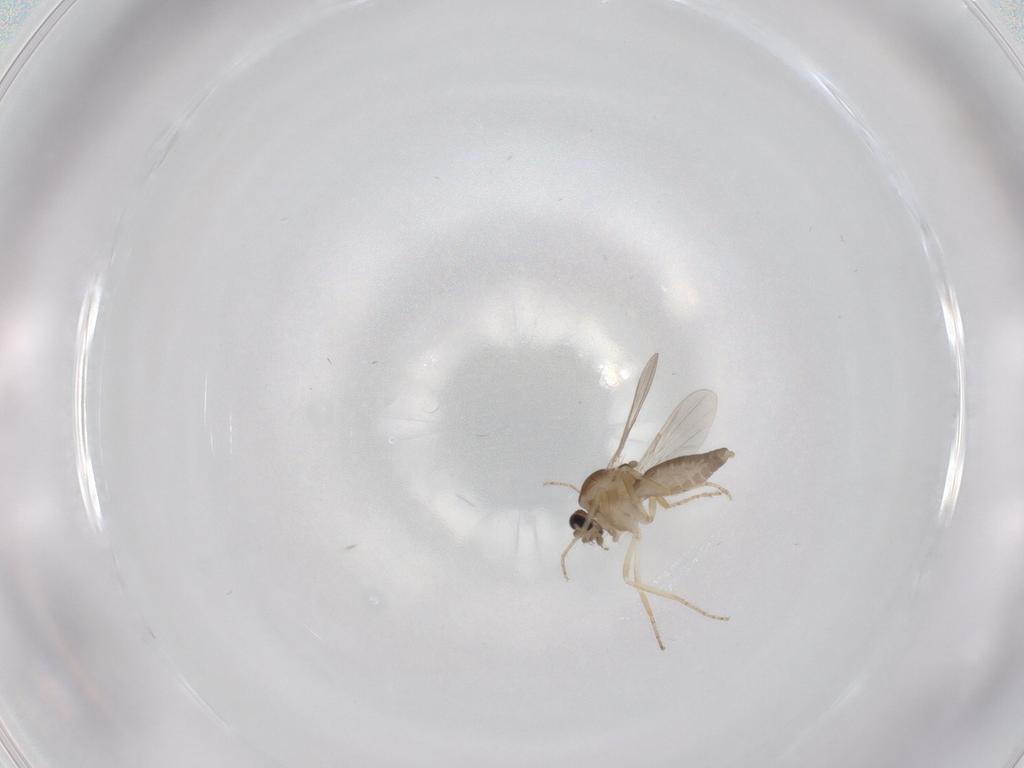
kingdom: Animalia
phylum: Arthropoda
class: Insecta
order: Diptera
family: Ceratopogonidae
